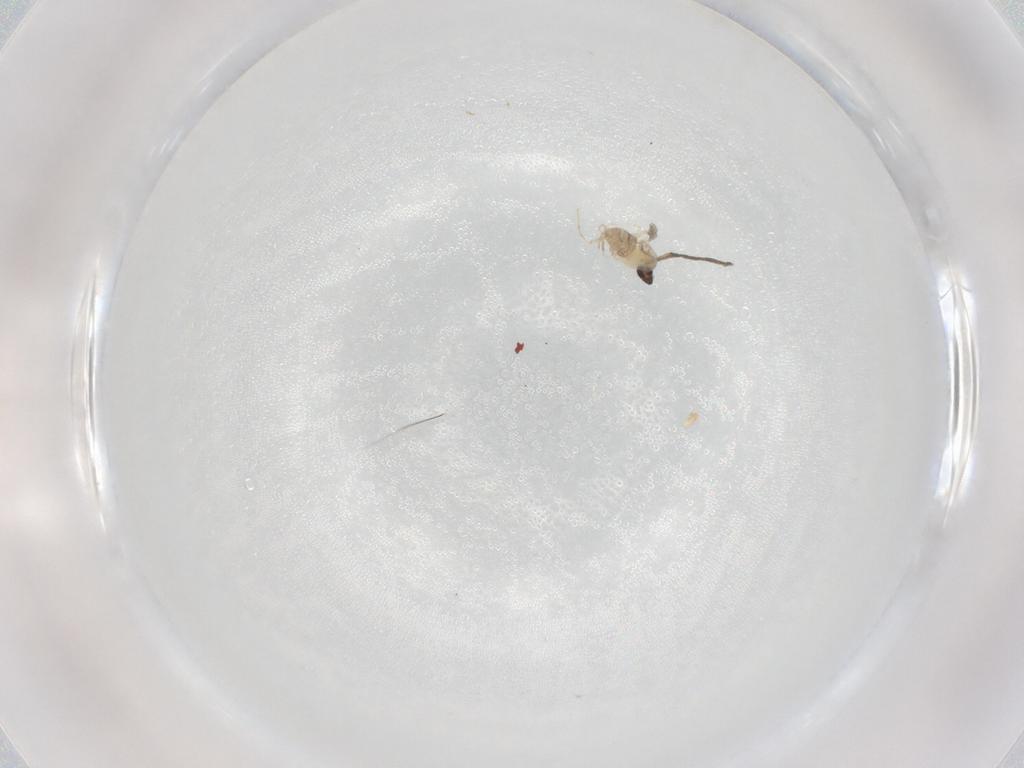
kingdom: Animalia
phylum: Arthropoda
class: Insecta
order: Diptera
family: Cecidomyiidae
